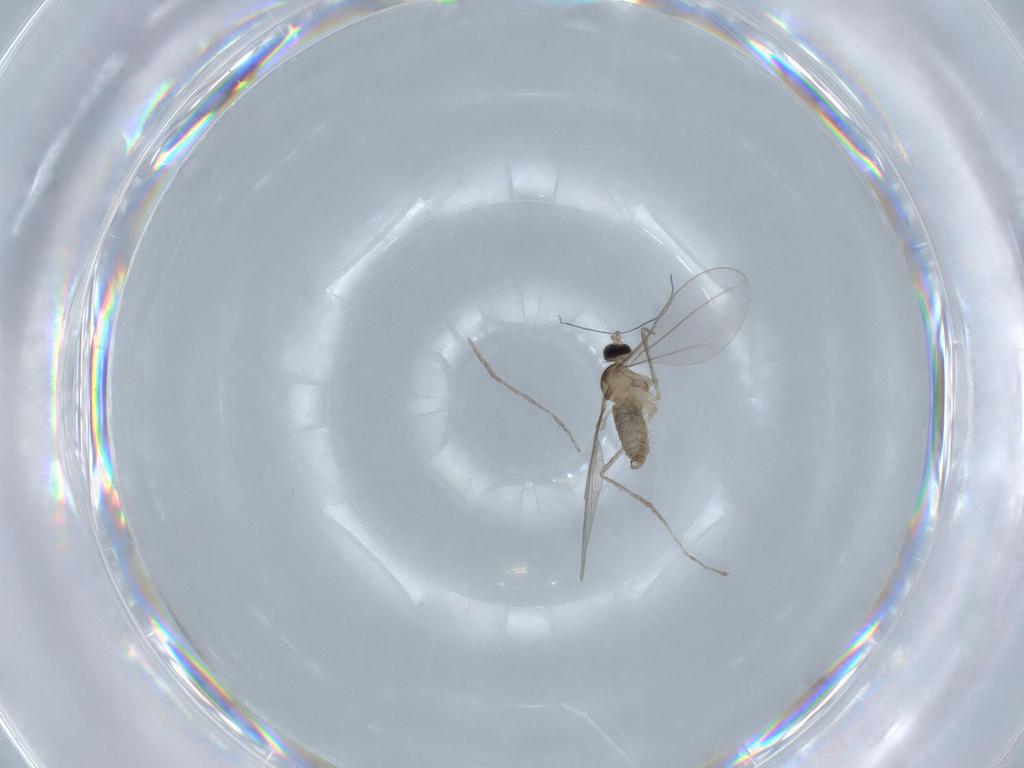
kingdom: Animalia
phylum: Arthropoda
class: Insecta
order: Diptera
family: Cecidomyiidae
